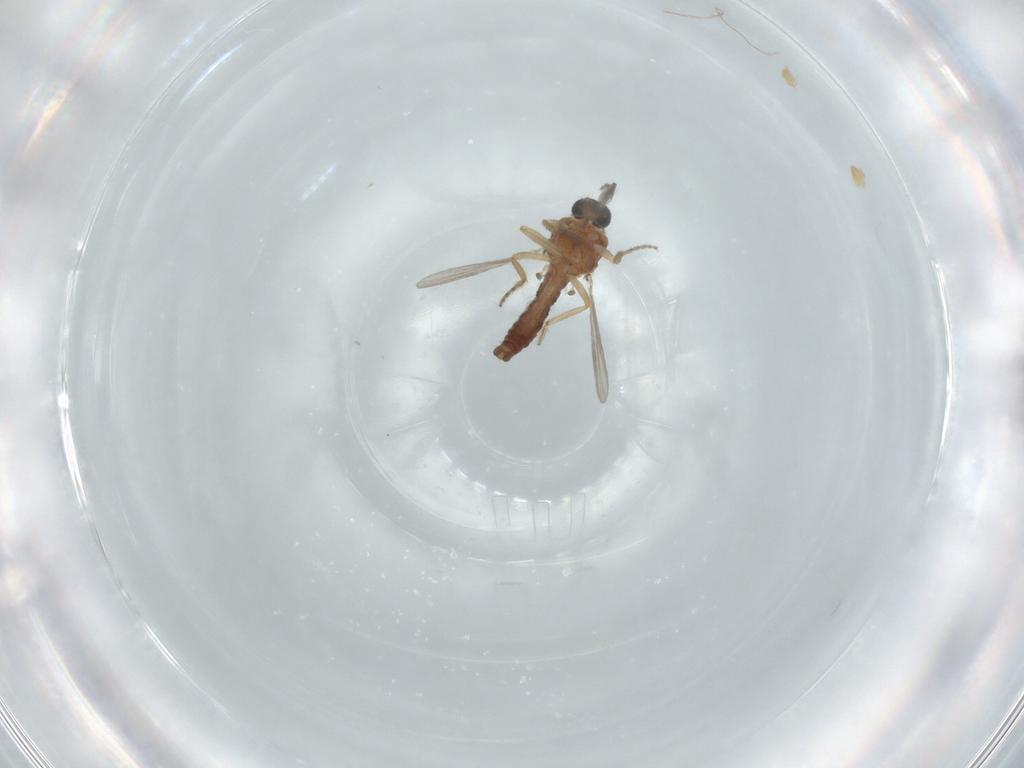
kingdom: Animalia
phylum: Arthropoda
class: Insecta
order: Diptera
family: Ceratopogonidae
